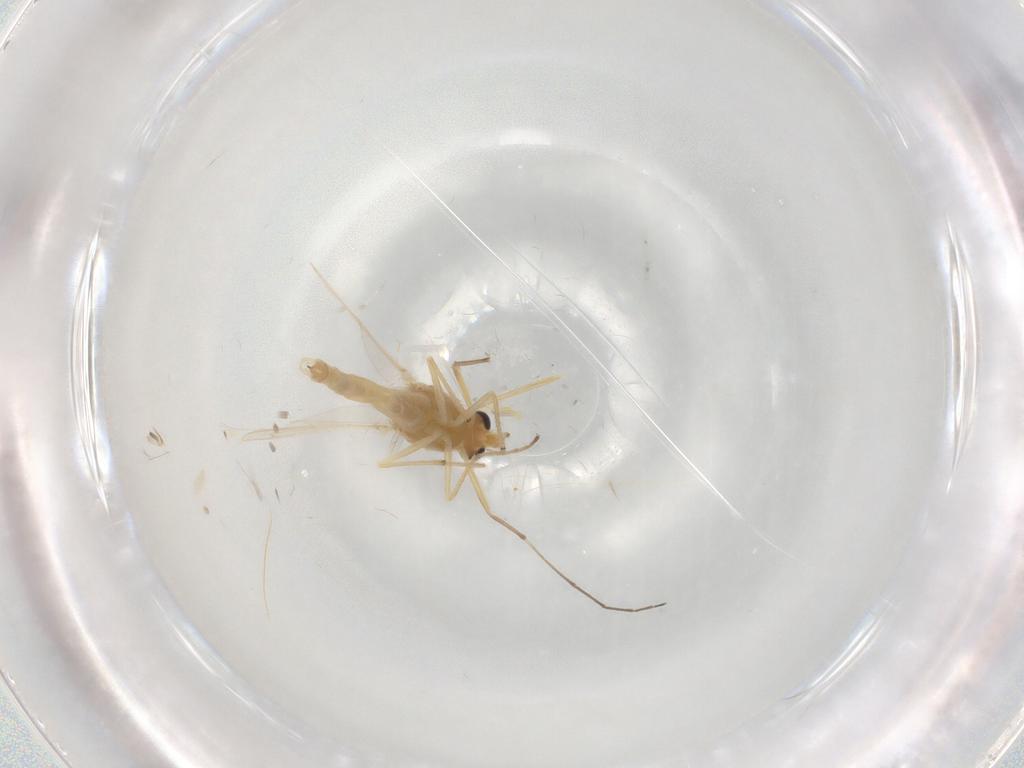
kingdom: Animalia
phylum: Arthropoda
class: Insecta
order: Diptera
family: Chironomidae
